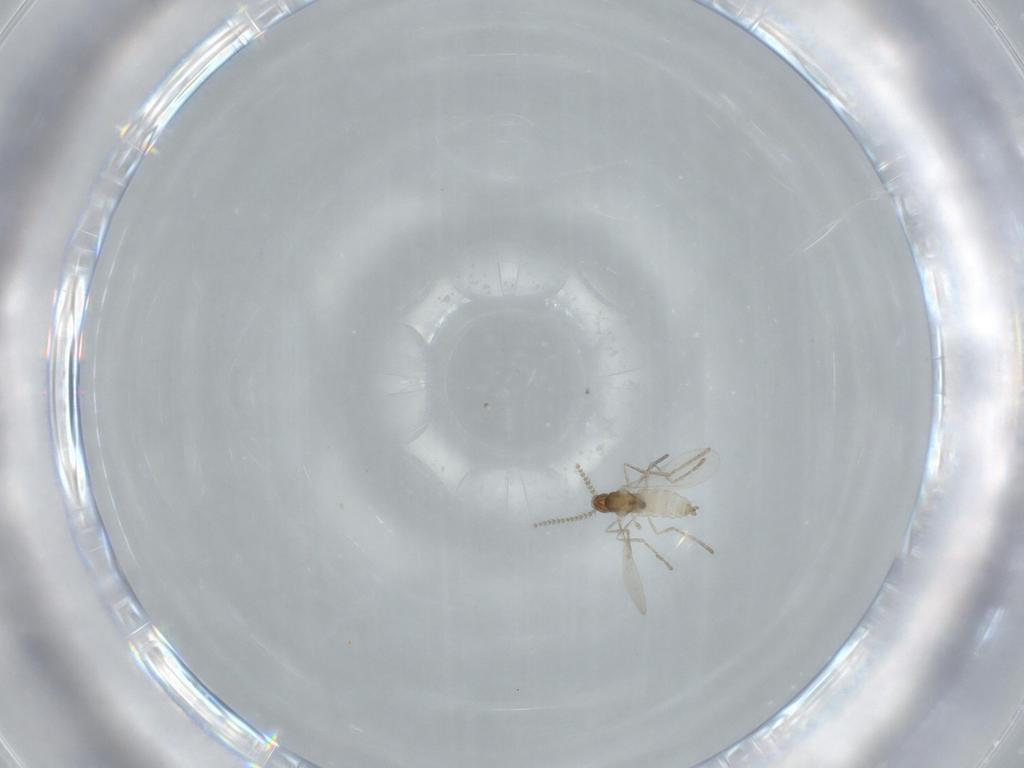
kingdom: Animalia
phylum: Arthropoda
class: Insecta
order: Diptera
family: Cecidomyiidae
